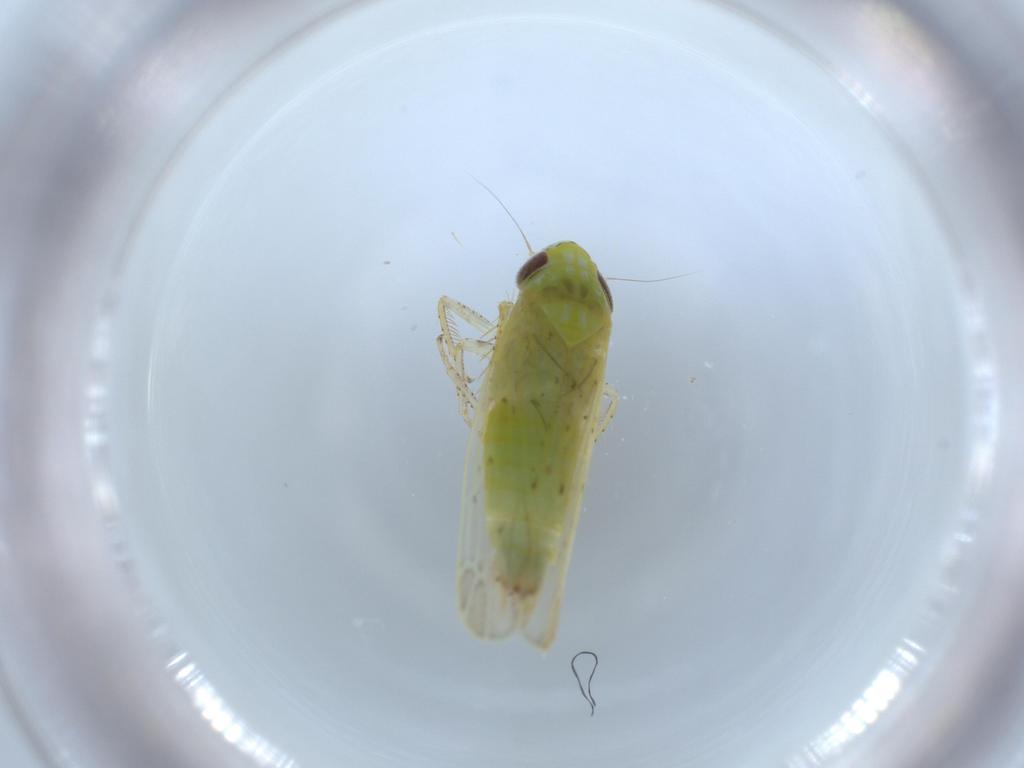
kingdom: Animalia
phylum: Arthropoda
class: Insecta
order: Hemiptera
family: Cicadellidae
